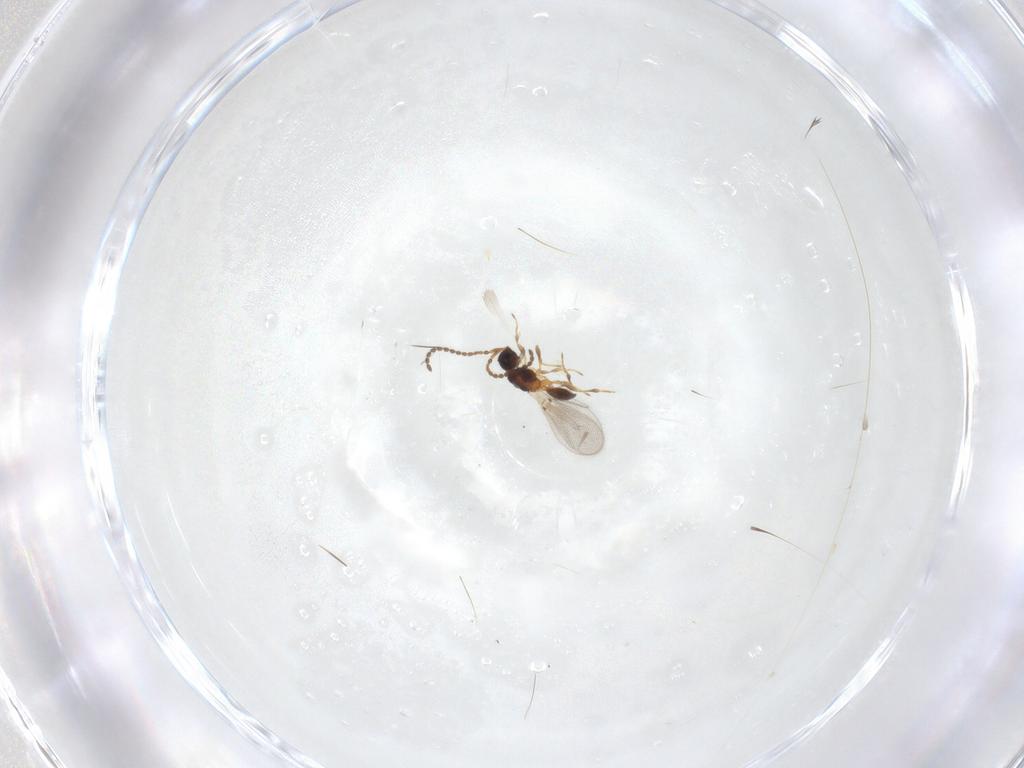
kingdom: Animalia
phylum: Arthropoda
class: Insecta
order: Hymenoptera
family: Diapriidae
